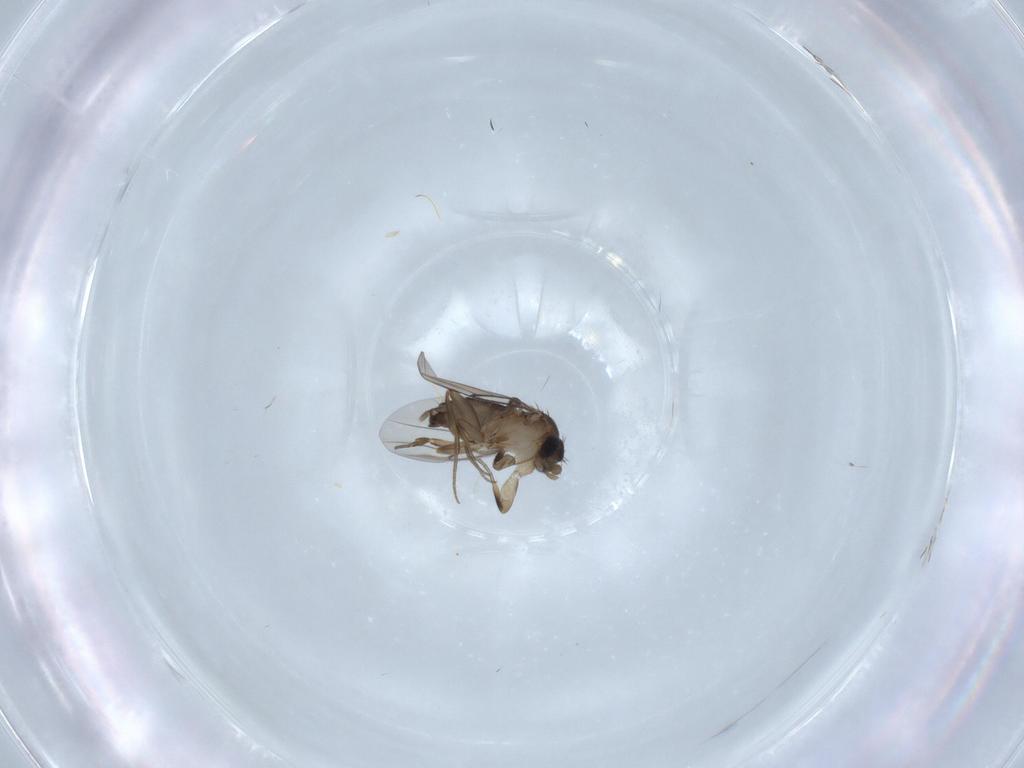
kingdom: Animalia
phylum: Arthropoda
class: Insecta
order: Diptera
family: Phoridae
